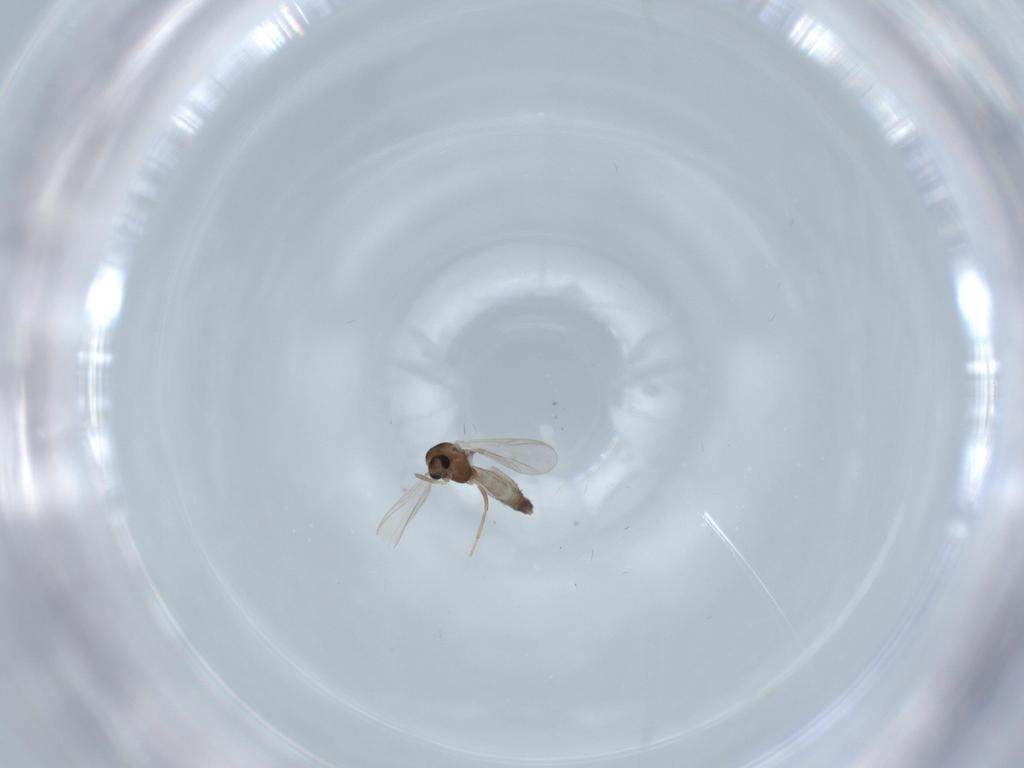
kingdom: Animalia
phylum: Arthropoda
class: Insecta
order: Diptera
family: Chironomidae
